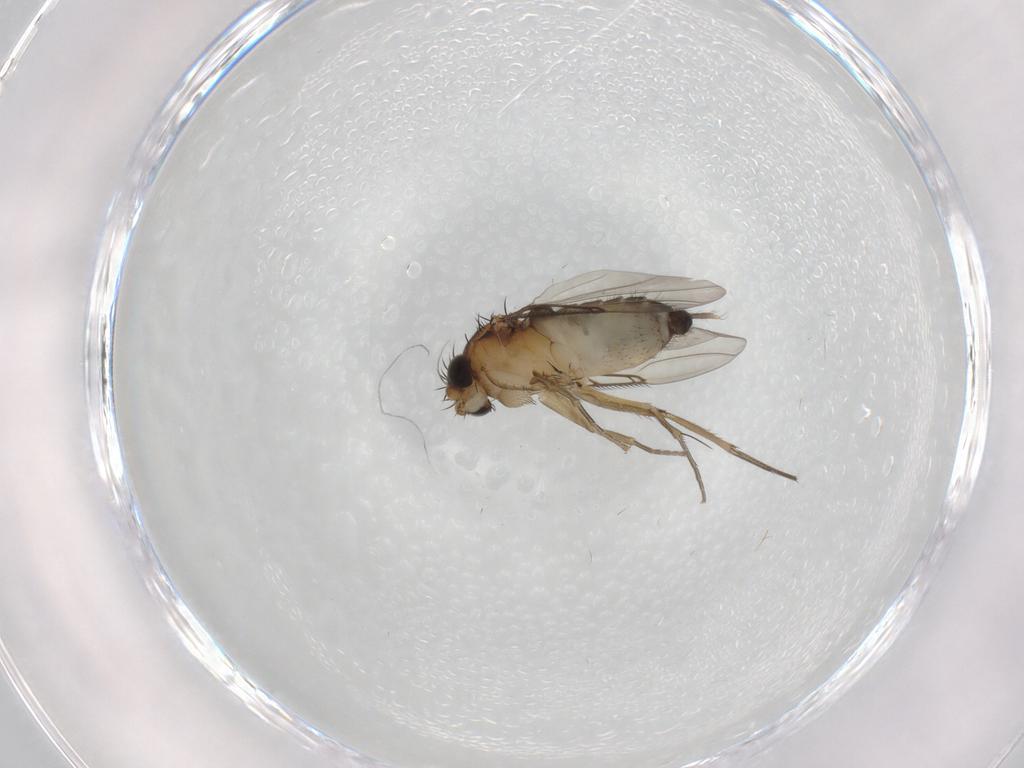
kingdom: Animalia
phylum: Arthropoda
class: Insecta
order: Diptera
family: Phoridae
